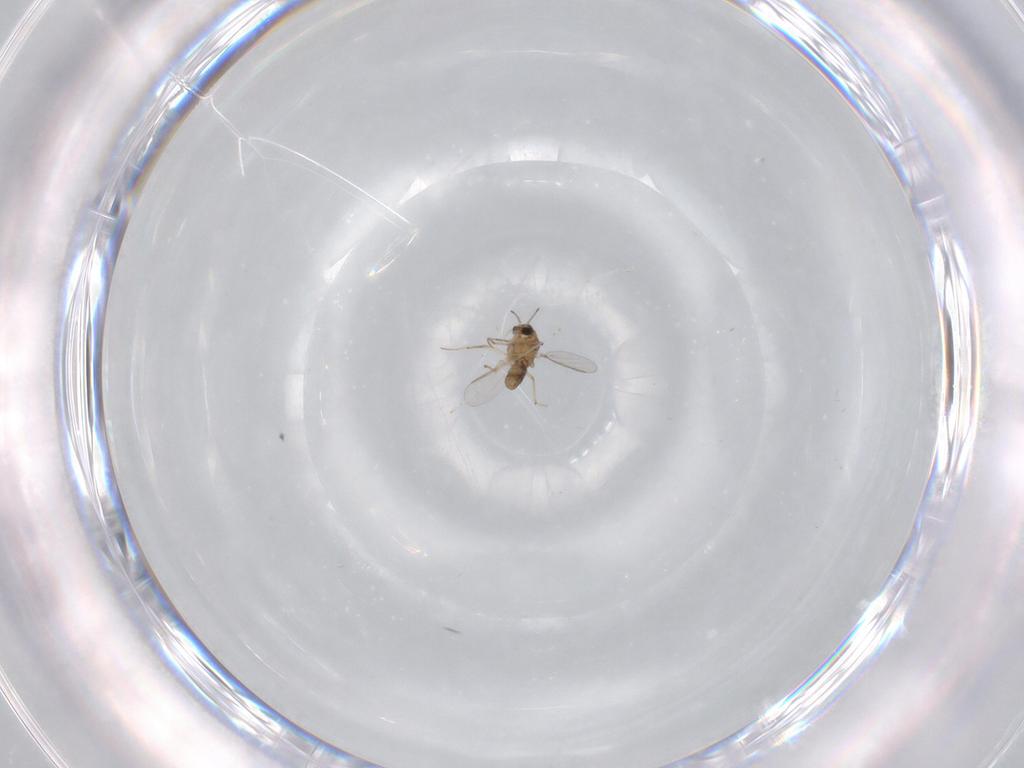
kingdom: Animalia
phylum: Arthropoda
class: Insecta
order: Diptera
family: Cecidomyiidae
